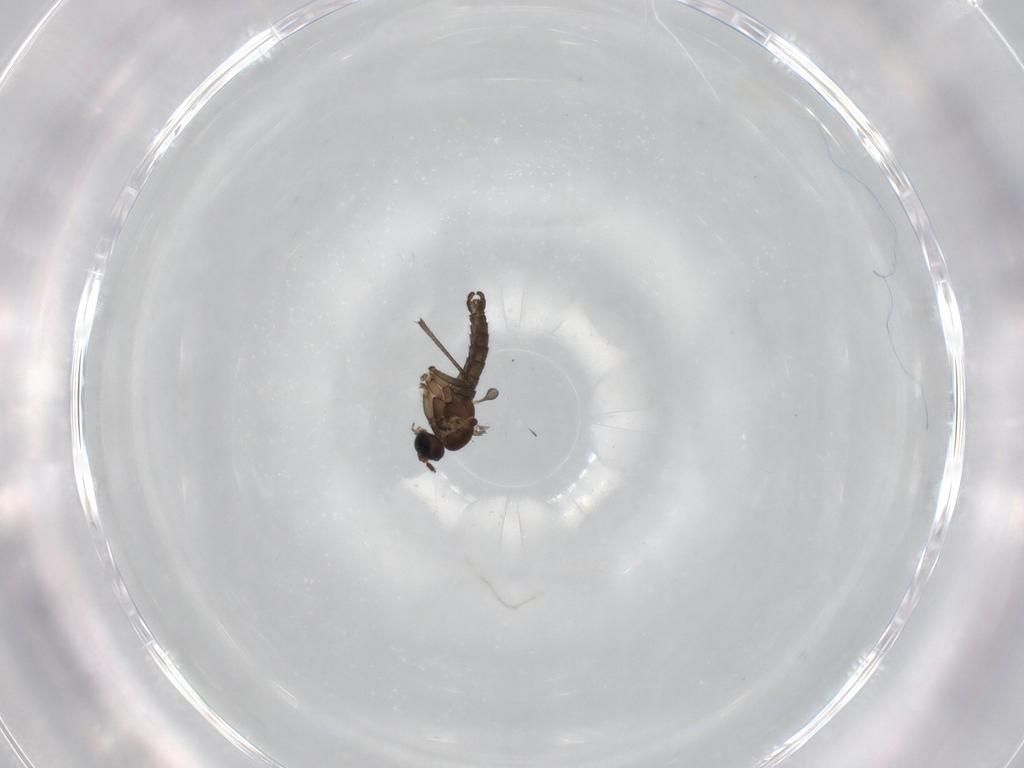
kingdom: Animalia
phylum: Arthropoda
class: Insecta
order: Diptera
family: Sciaridae
